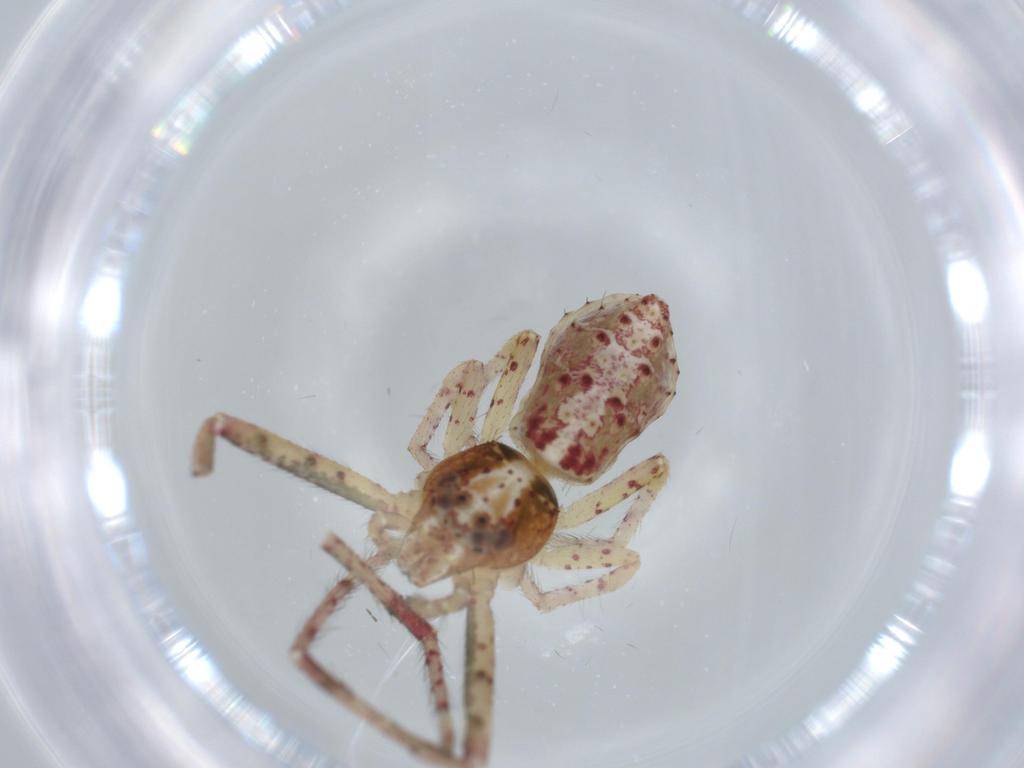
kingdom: Animalia
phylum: Arthropoda
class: Arachnida
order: Araneae
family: Thomisidae
